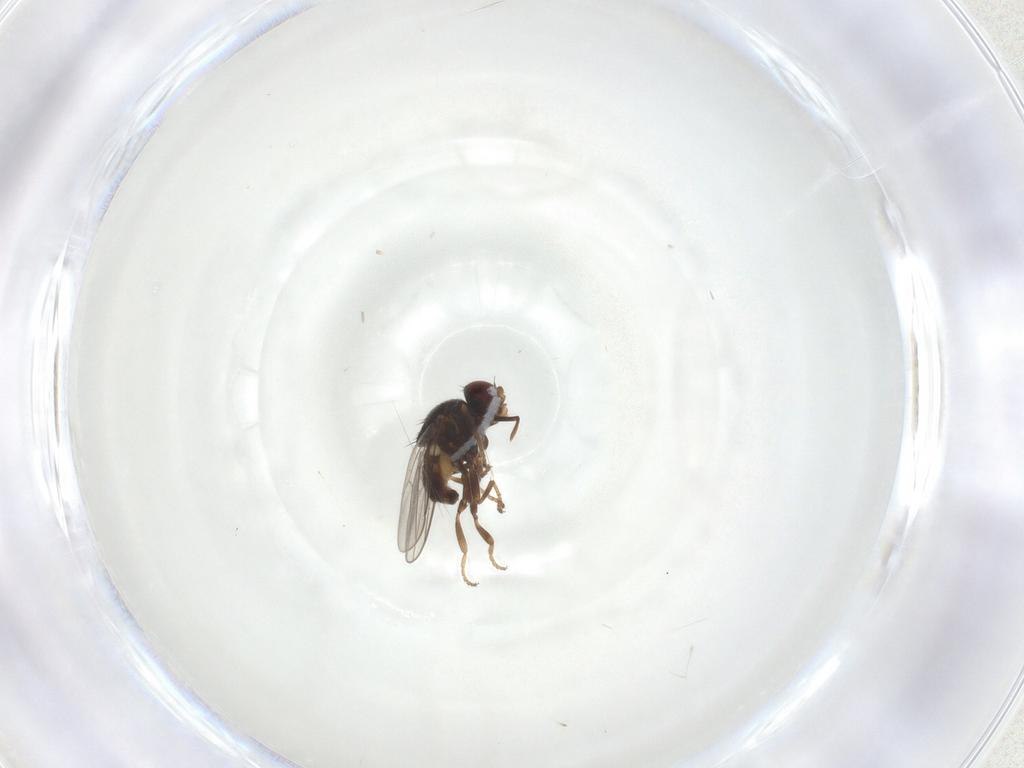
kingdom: Animalia
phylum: Arthropoda
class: Insecta
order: Diptera
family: Chloropidae
